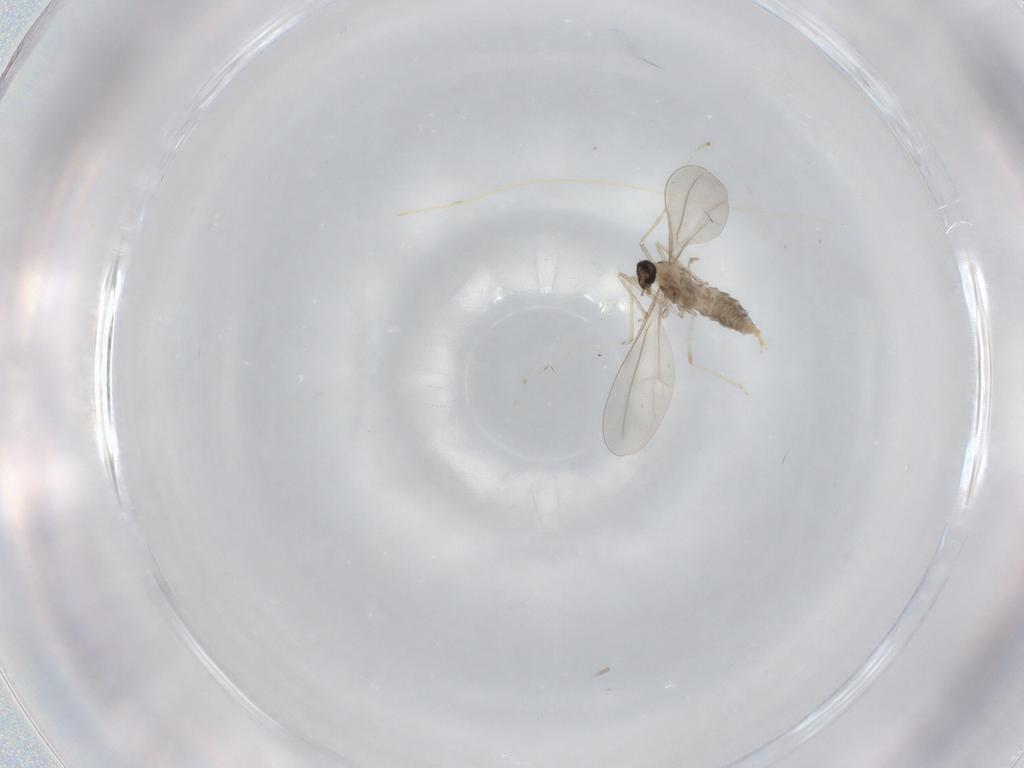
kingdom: Animalia
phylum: Arthropoda
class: Insecta
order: Diptera
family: Cecidomyiidae
